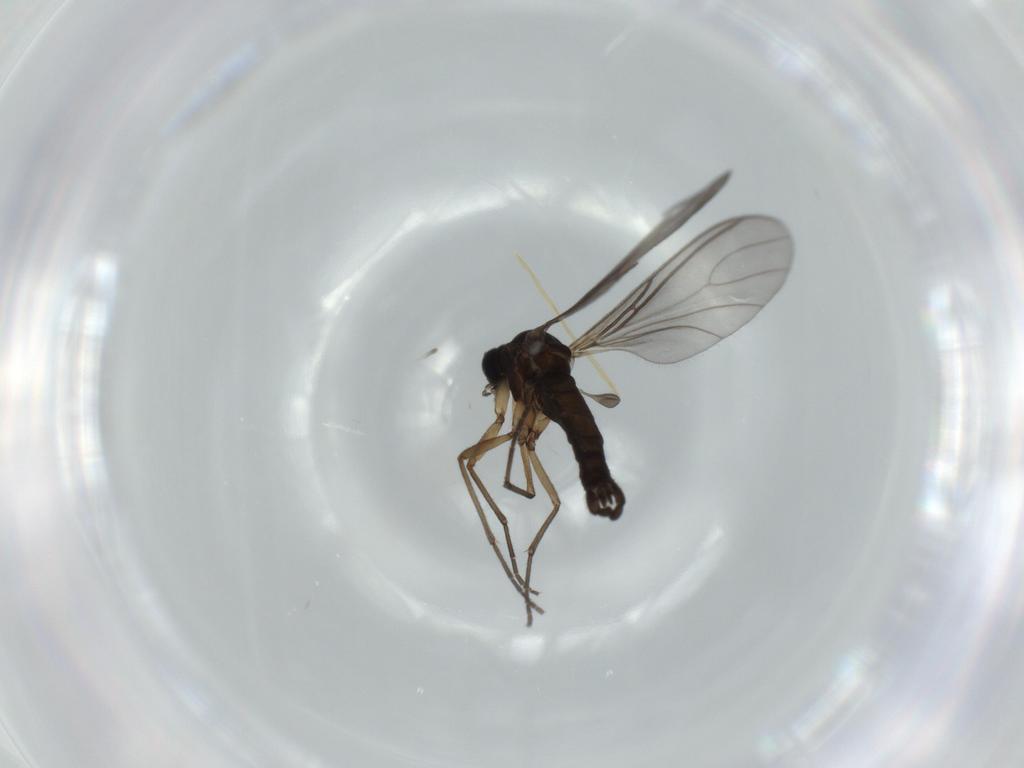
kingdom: Animalia
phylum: Arthropoda
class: Insecta
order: Diptera
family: Sciaridae
